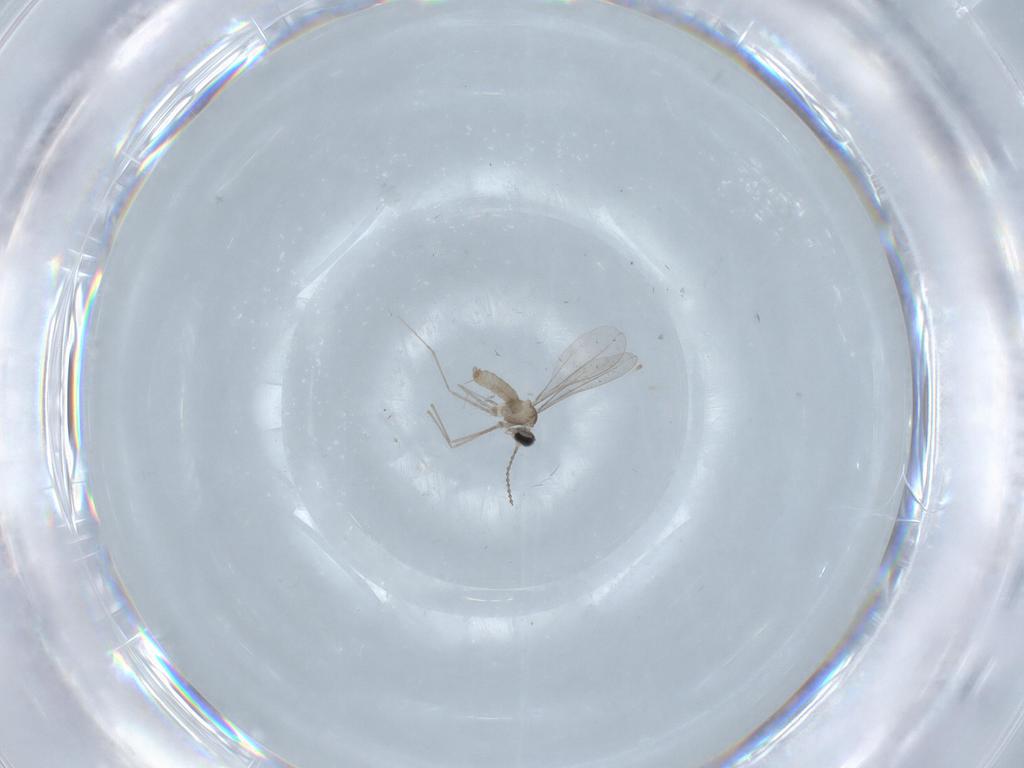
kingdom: Animalia
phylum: Arthropoda
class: Insecta
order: Diptera
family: Cecidomyiidae
